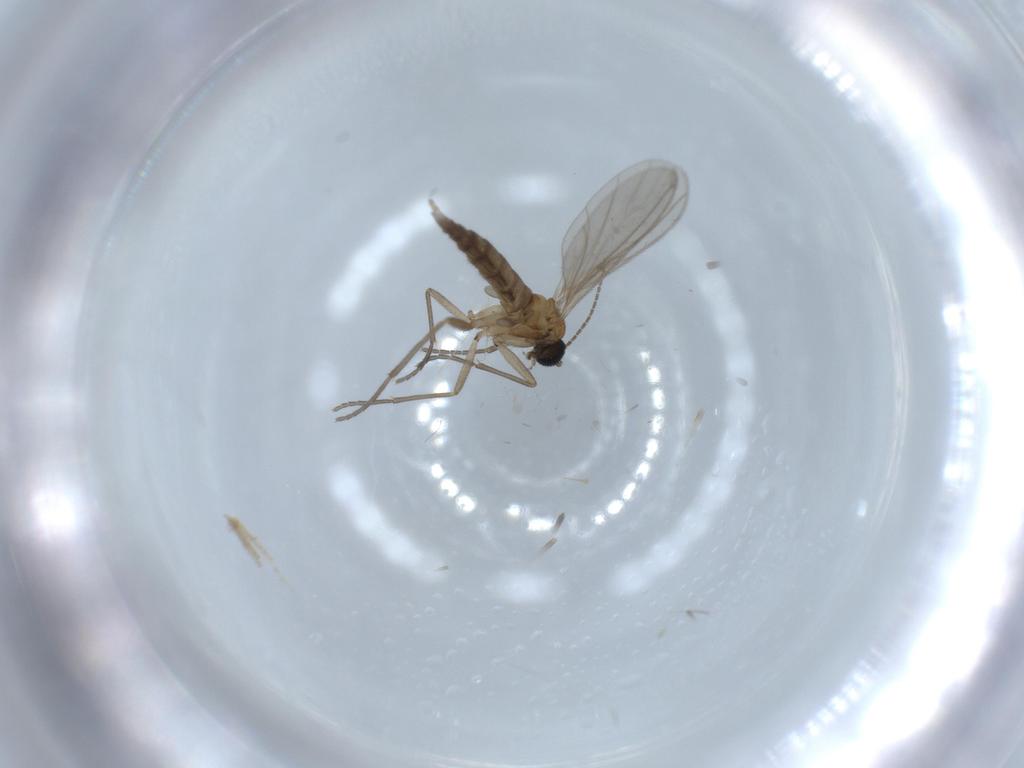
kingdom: Animalia
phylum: Arthropoda
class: Insecta
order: Diptera
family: Sciaridae
